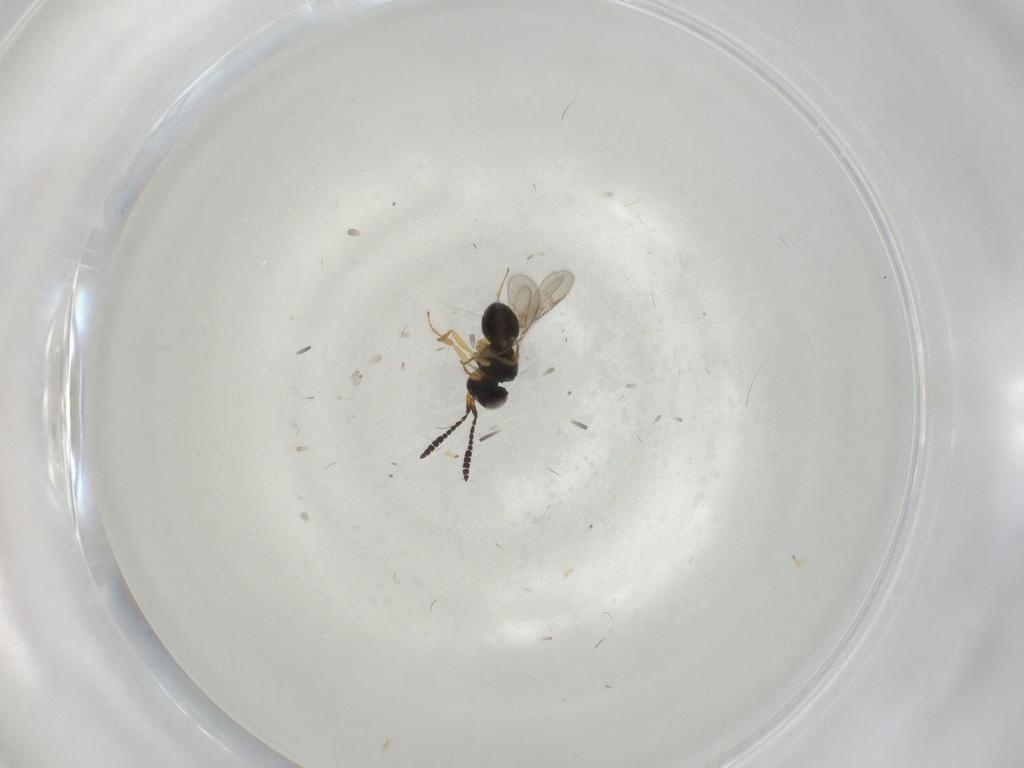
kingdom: Animalia
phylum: Arthropoda
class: Insecta
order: Hymenoptera
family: Scelionidae
